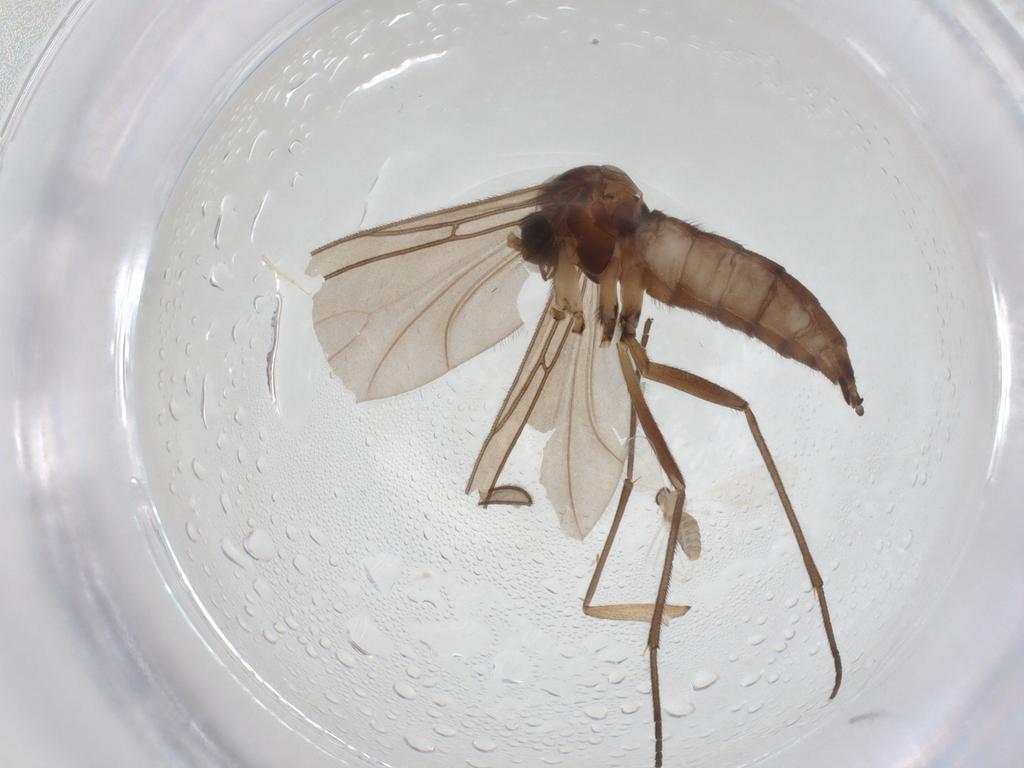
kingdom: Animalia
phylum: Arthropoda
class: Insecta
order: Diptera
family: Sciaridae
